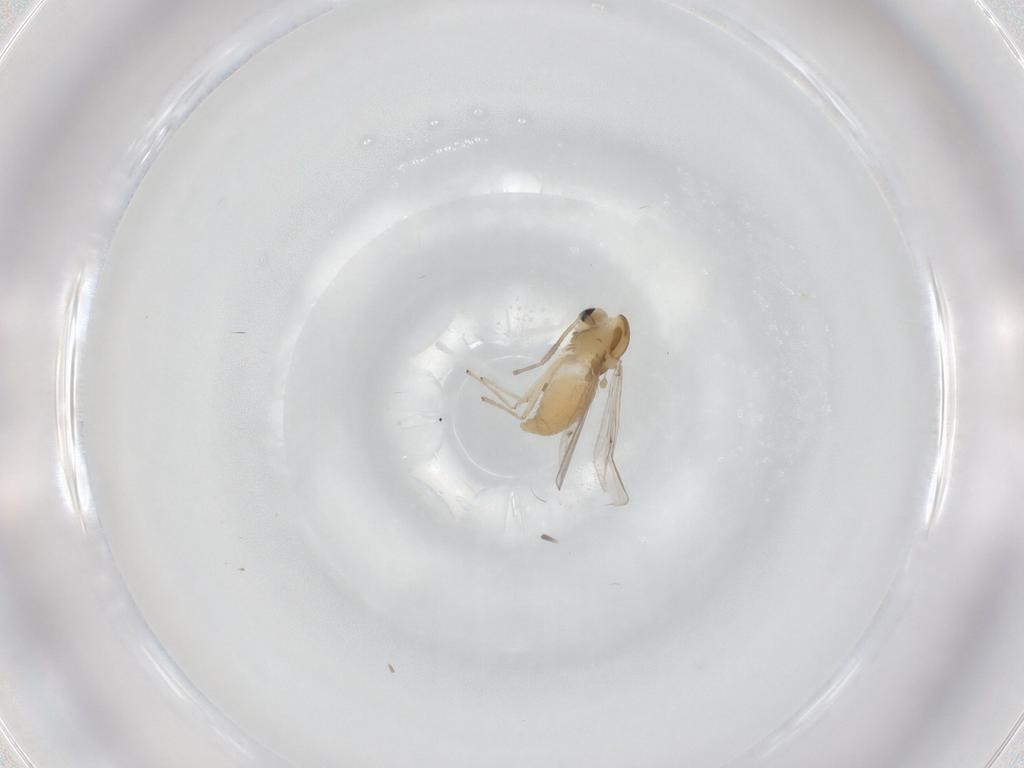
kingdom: Animalia
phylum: Arthropoda
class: Insecta
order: Diptera
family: Chironomidae
